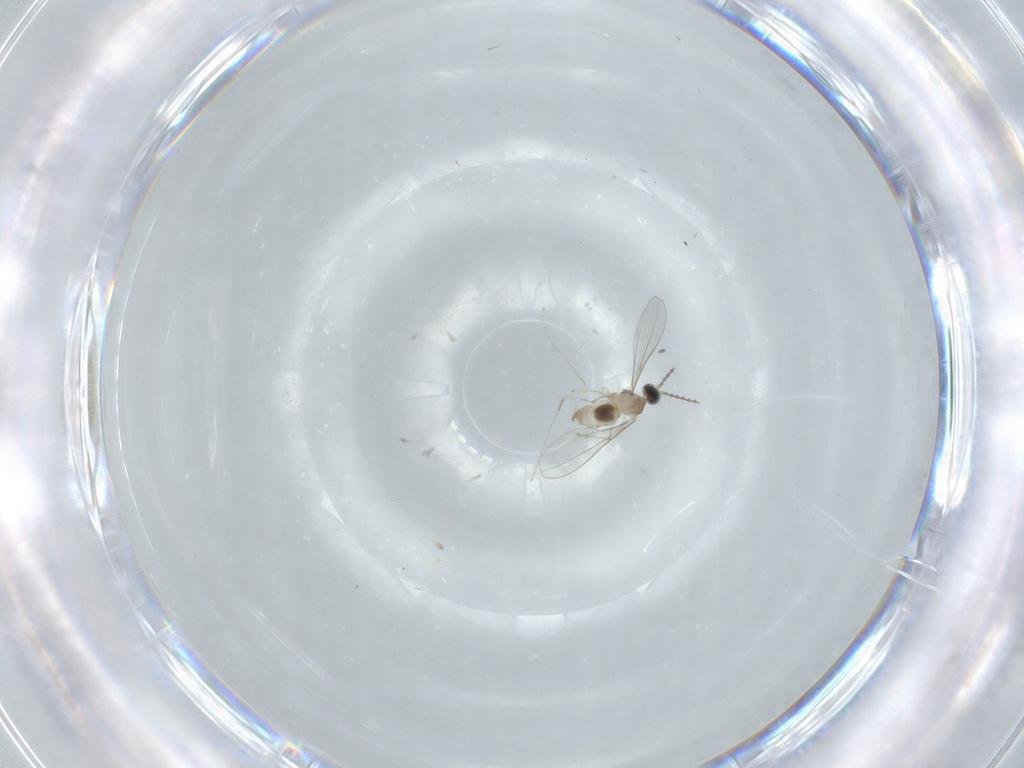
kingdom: Animalia
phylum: Arthropoda
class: Insecta
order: Diptera
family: Cecidomyiidae
